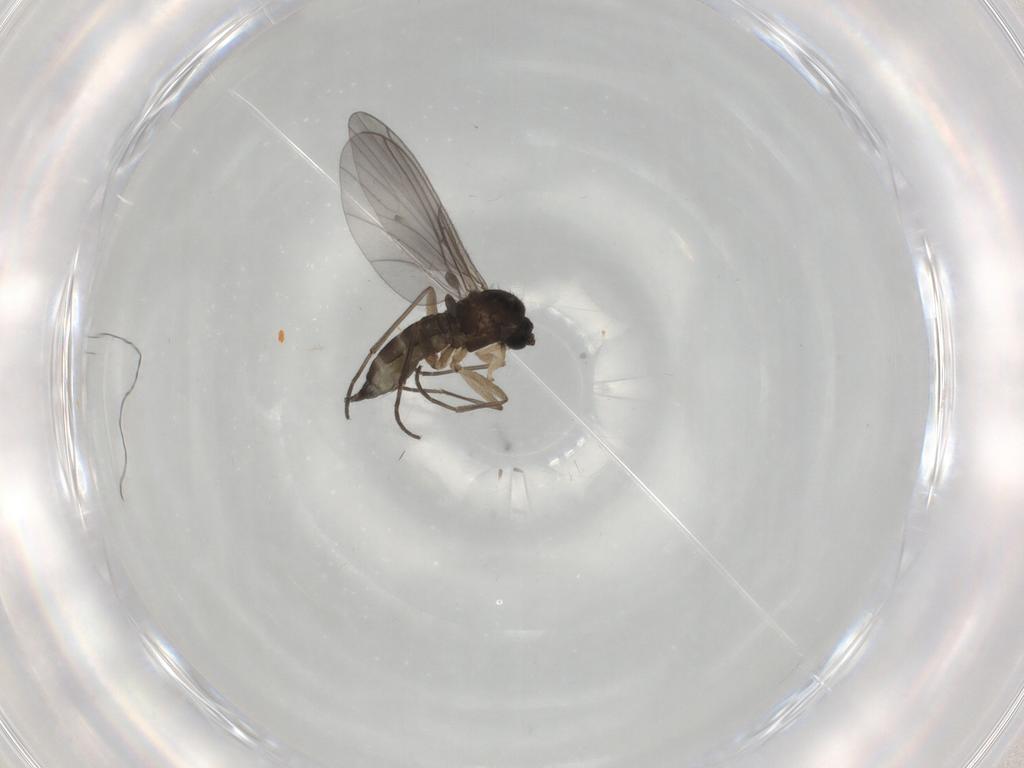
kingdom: Animalia
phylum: Arthropoda
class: Insecta
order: Diptera
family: Sciaridae
